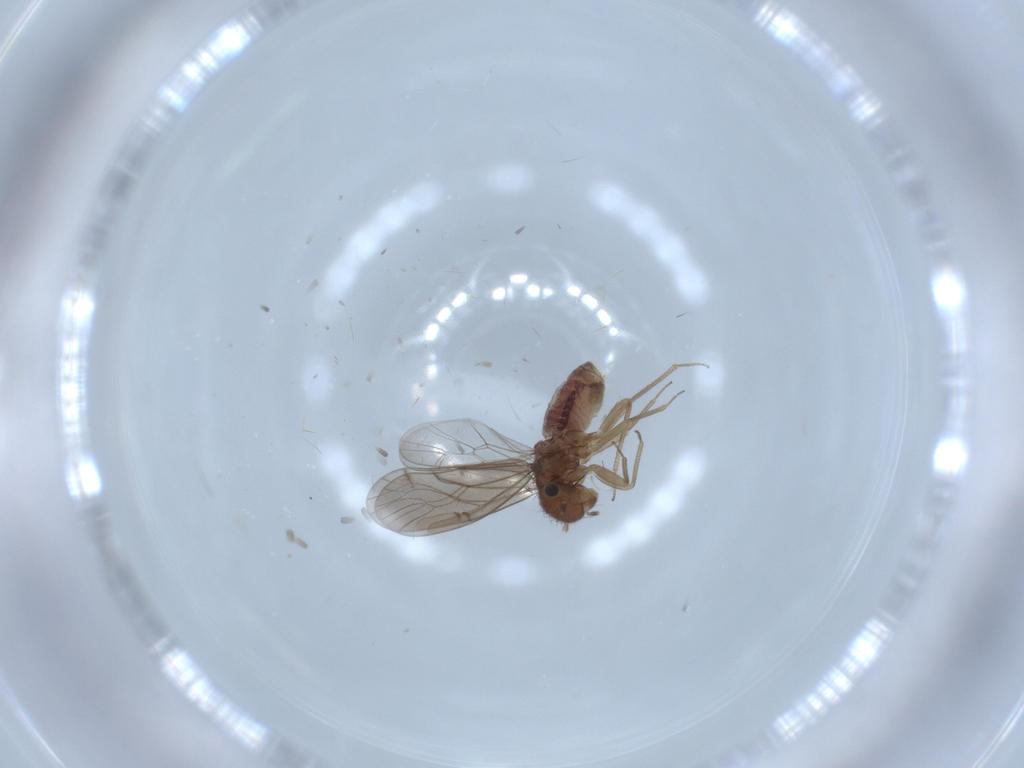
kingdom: Animalia
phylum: Arthropoda
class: Insecta
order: Psocodea
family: Ectopsocidae
